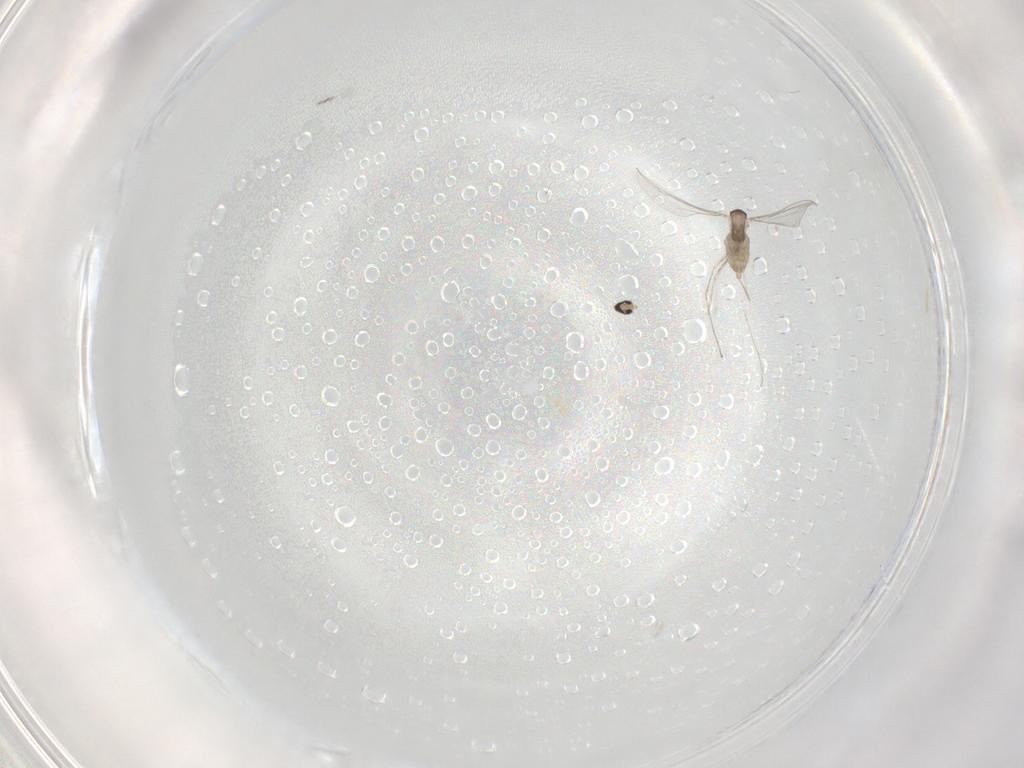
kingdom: Animalia
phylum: Arthropoda
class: Insecta
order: Diptera
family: Cecidomyiidae
